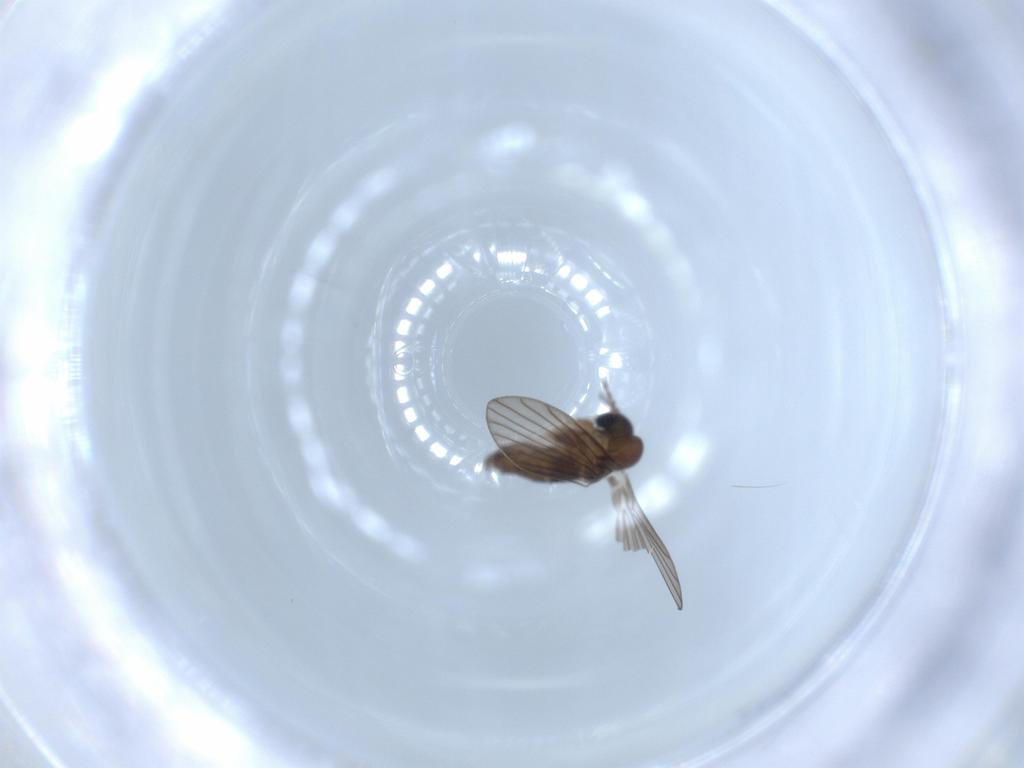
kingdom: Animalia
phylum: Arthropoda
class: Insecta
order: Diptera
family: Psychodidae
